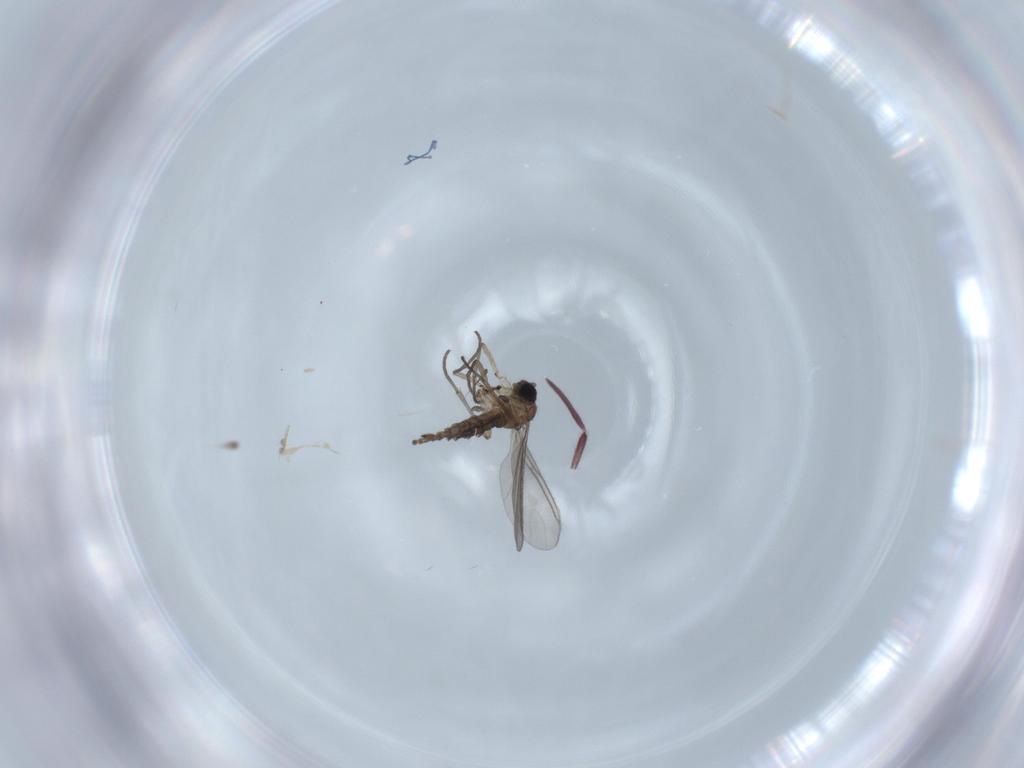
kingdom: Animalia
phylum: Arthropoda
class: Insecta
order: Diptera
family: Sciaridae
